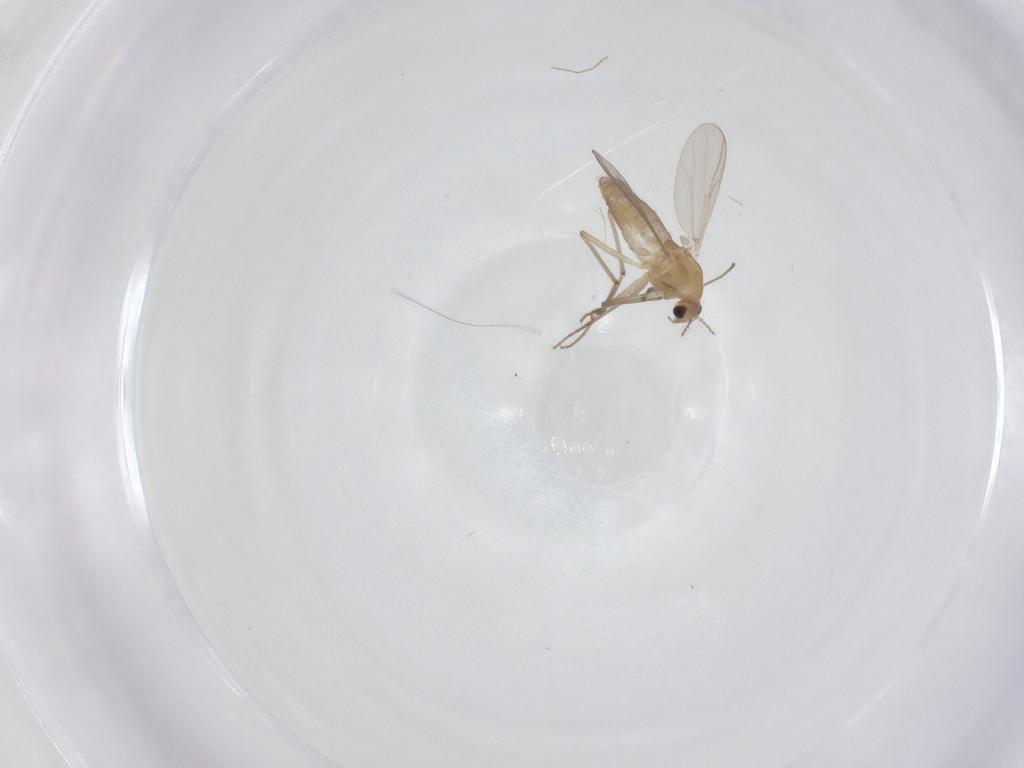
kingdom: Animalia
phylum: Arthropoda
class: Insecta
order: Diptera
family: Chironomidae
